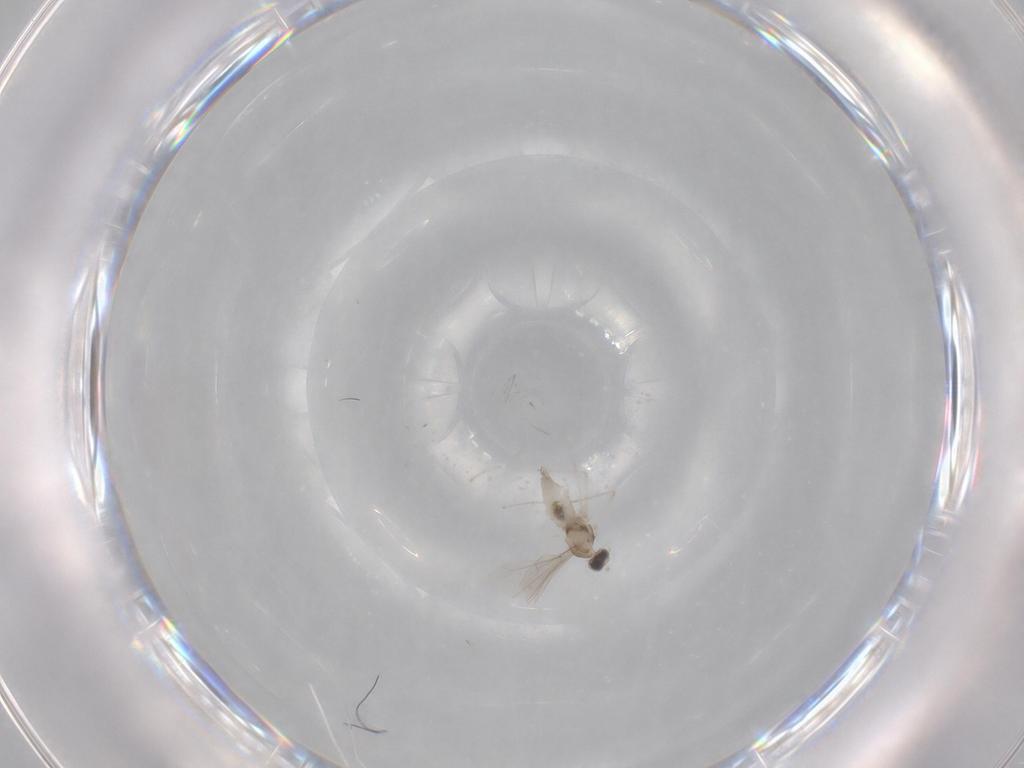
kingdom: Animalia
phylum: Arthropoda
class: Insecta
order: Diptera
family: Cecidomyiidae
